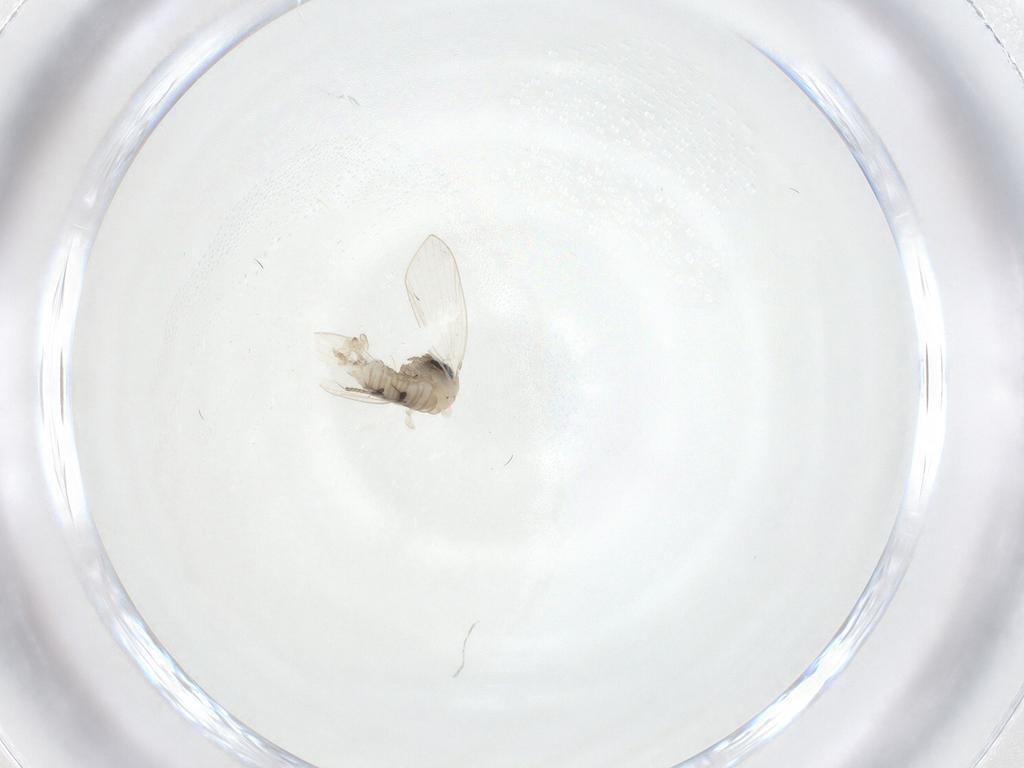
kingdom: Animalia
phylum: Arthropoda
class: Insecta
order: Diptera
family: Psychodidae
